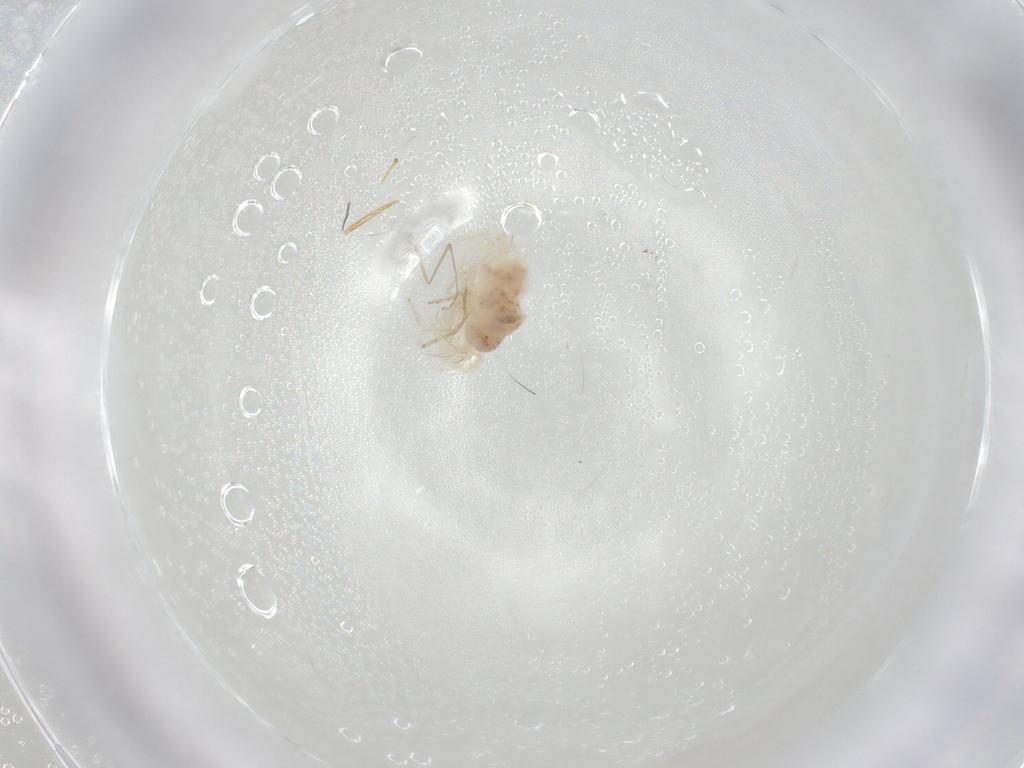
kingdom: Animalia
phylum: Arthropoda
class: Arachnida
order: Trombidiformes
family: Anystidae
